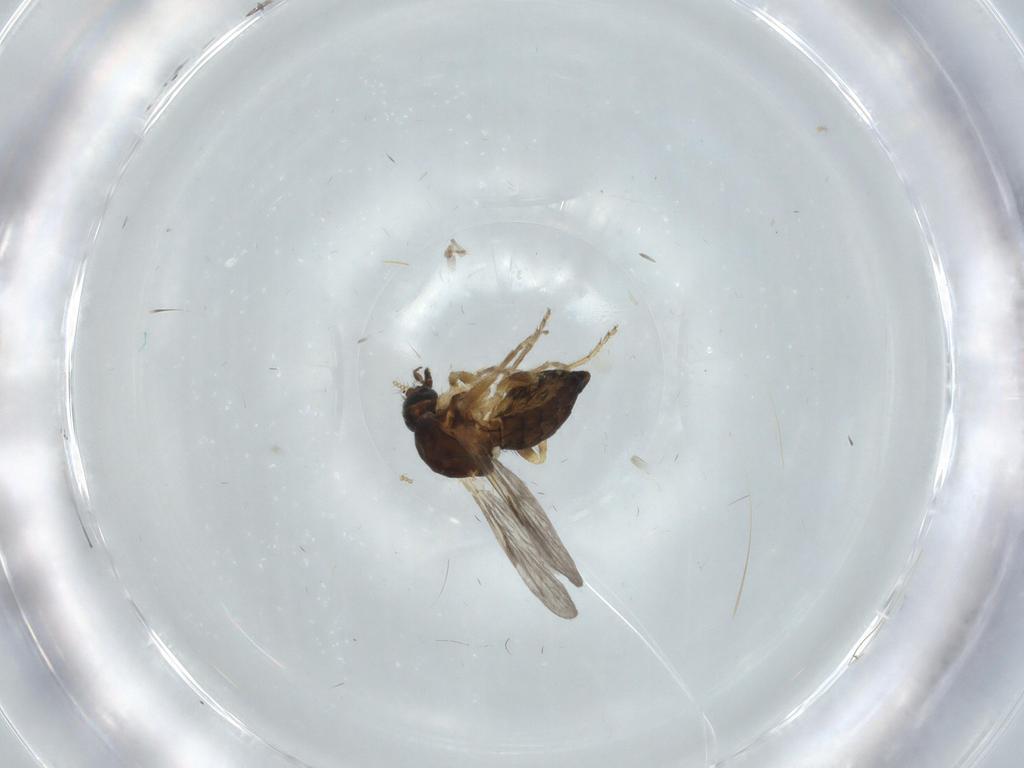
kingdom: Animalia
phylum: Arthropoda
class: Insecta
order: Diptera
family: Ceratopogonidae
